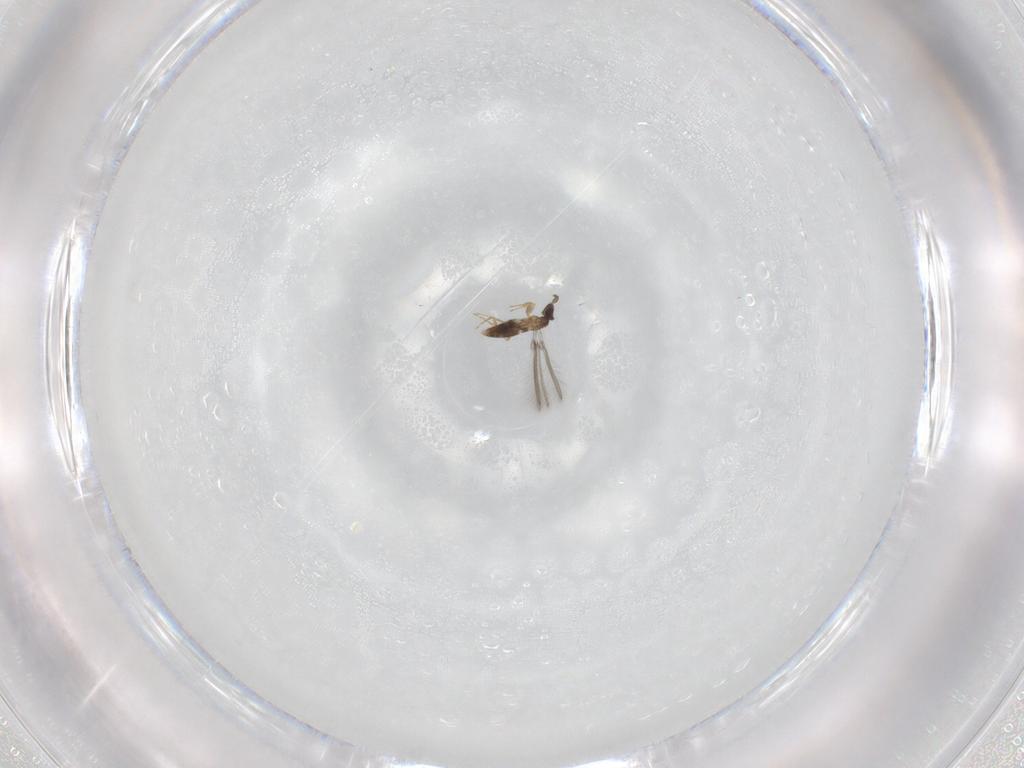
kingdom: Animalia
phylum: Arthropoda
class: Insecta
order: Hymenoptera
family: Mymaridae
